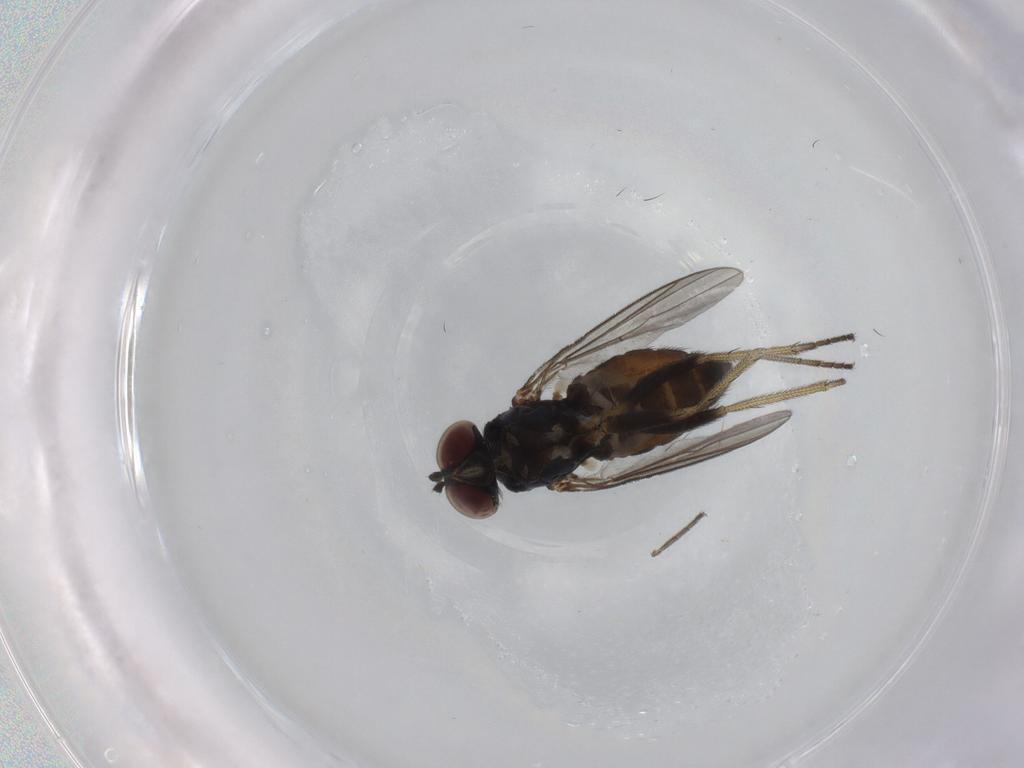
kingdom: Animalia
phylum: Arthropoda
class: Insecta
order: Diptera
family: Dolichopodidae
